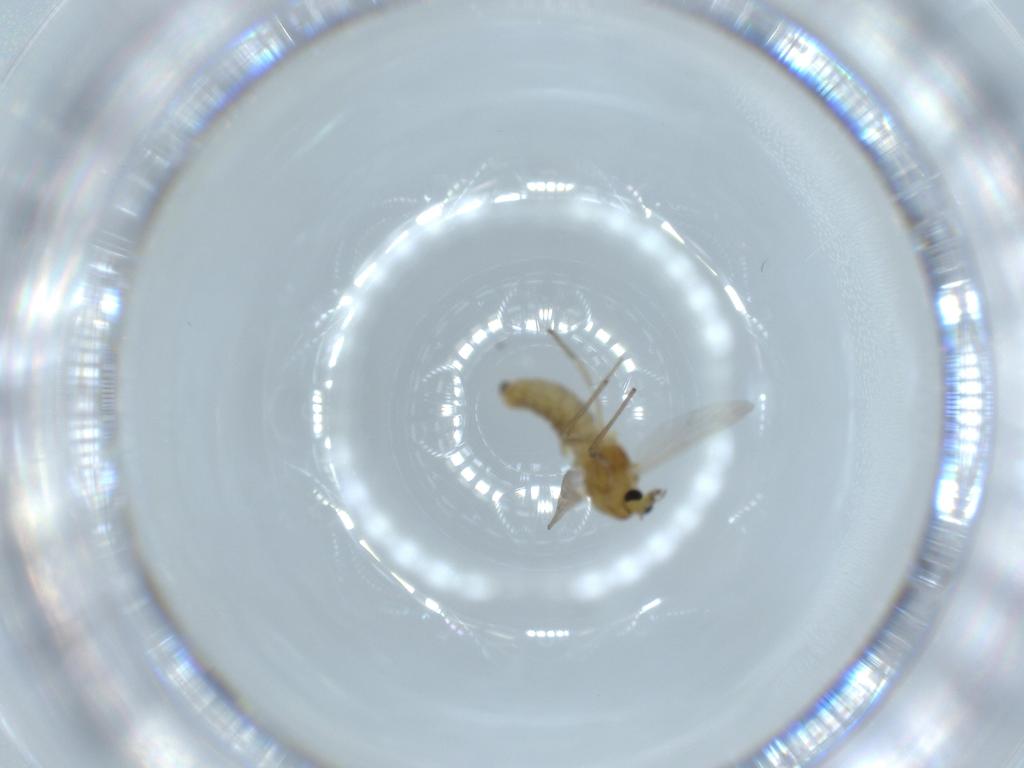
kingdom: Animalia
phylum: Arthropoda
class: Insecta
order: Diptera
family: Chironomidae
